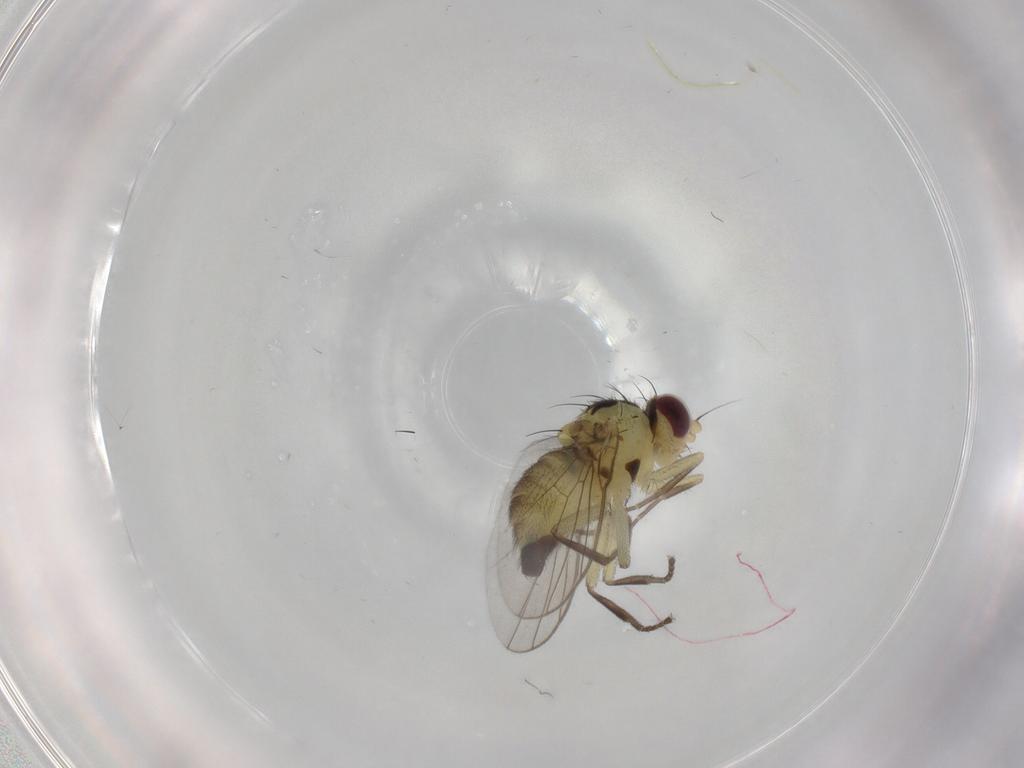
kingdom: Animalia
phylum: Arthropoda
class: Insecta
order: Diptera
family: Agromyzidae
